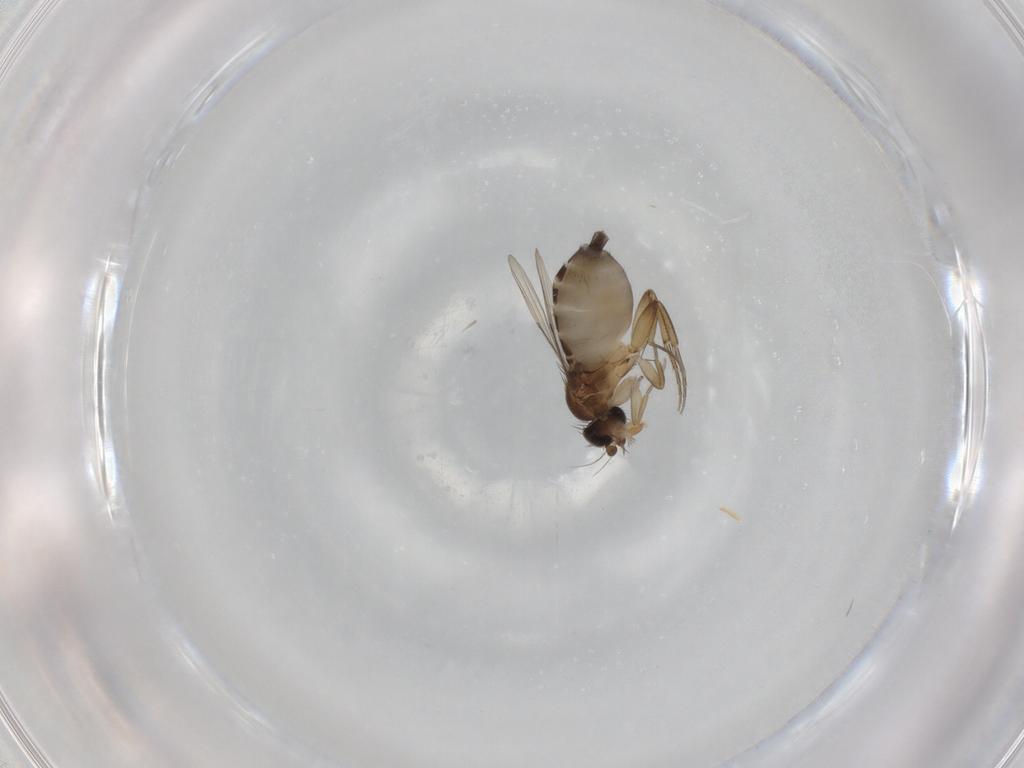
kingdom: Animalia
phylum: Arthropoda
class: Insecta
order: Diptera
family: Phoridae
